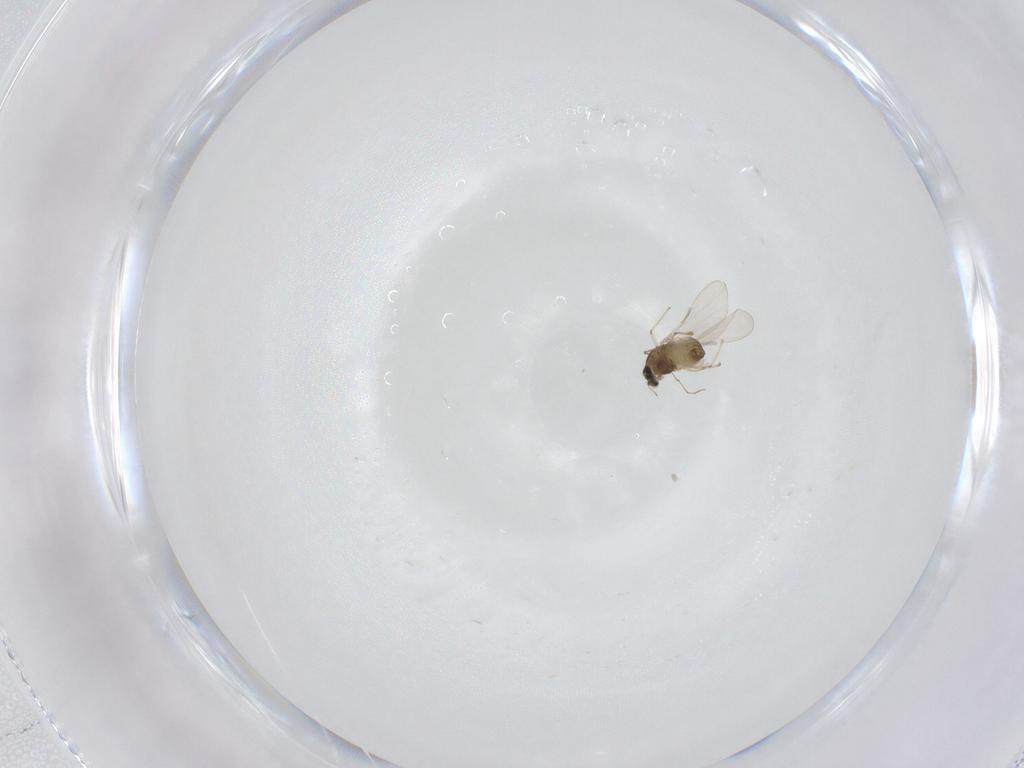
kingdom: Animalia
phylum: Arthropoda
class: Insecta
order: Diptera
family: Chironomidae
